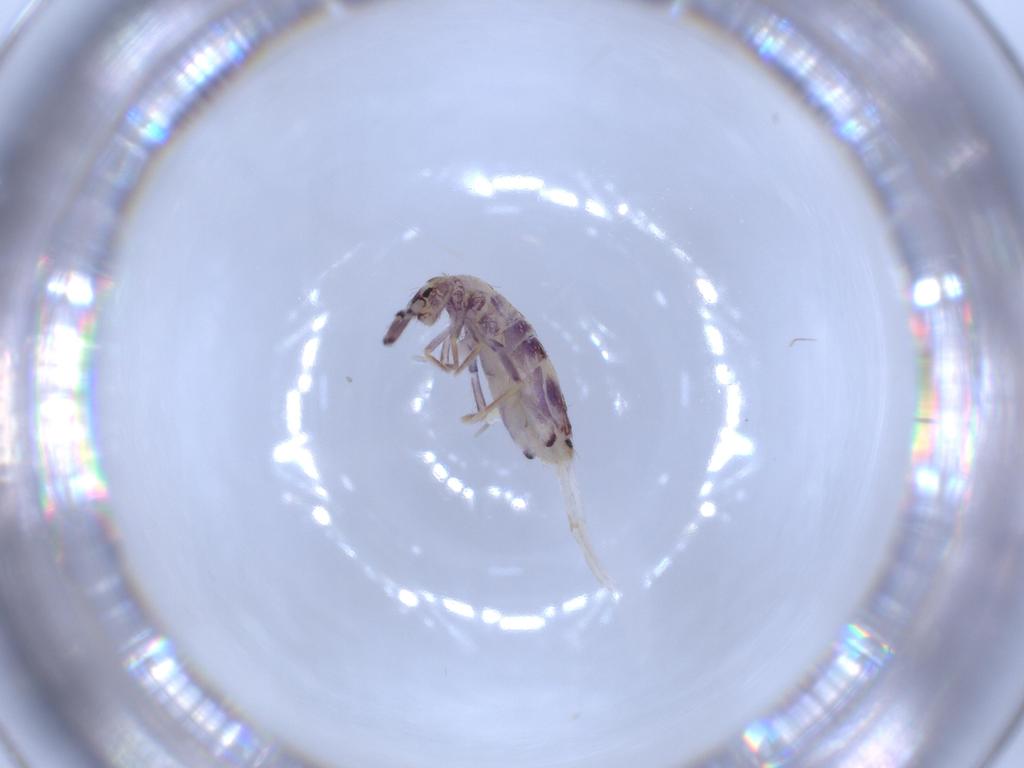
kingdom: Animalia
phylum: Arthropoda
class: Collembola
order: Entomobryomorpha
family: Entomobryidae
